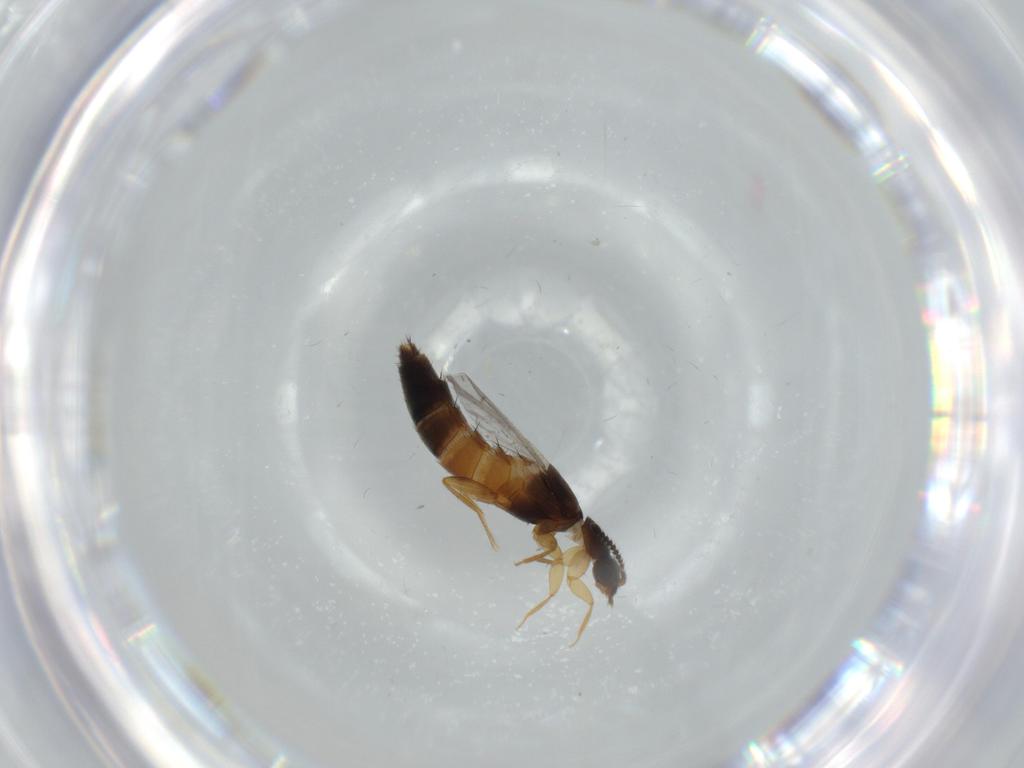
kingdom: Animalia
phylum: Arthropoda
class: Insecta
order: Coleoptera
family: Staphylinidae
